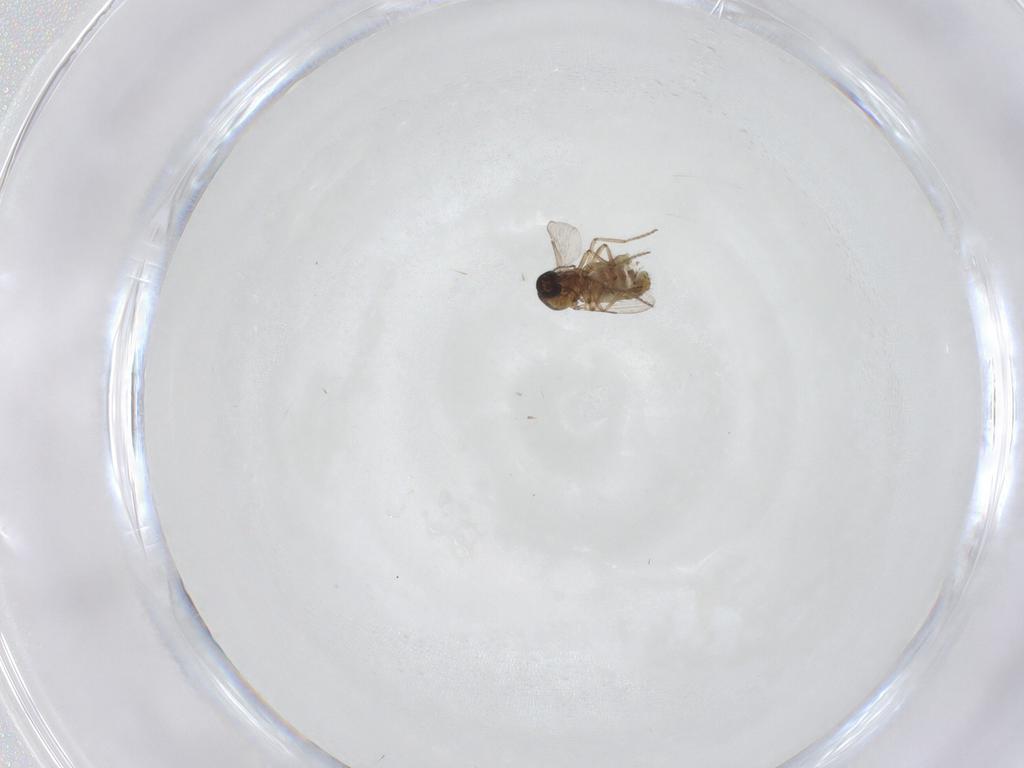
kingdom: Animalia
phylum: Arthropoda
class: Insecta
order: Diptera
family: Ceratopogonidae
